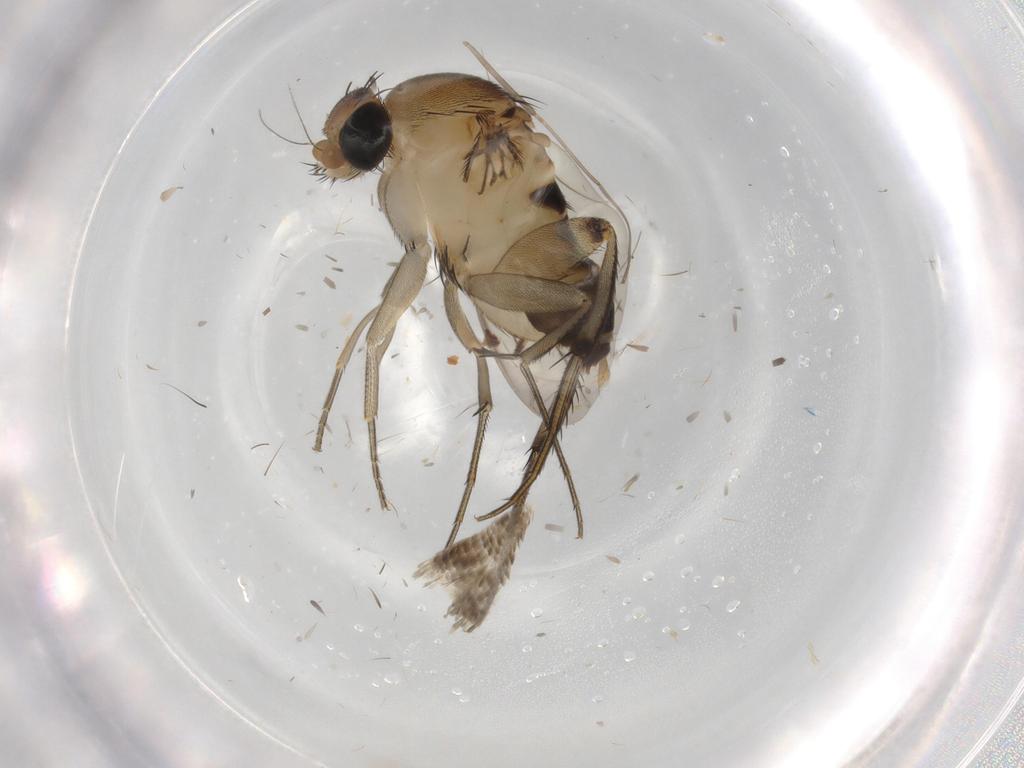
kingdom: Animalia
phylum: Arthropoda
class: Insecta
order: Diptera
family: Phoridae
